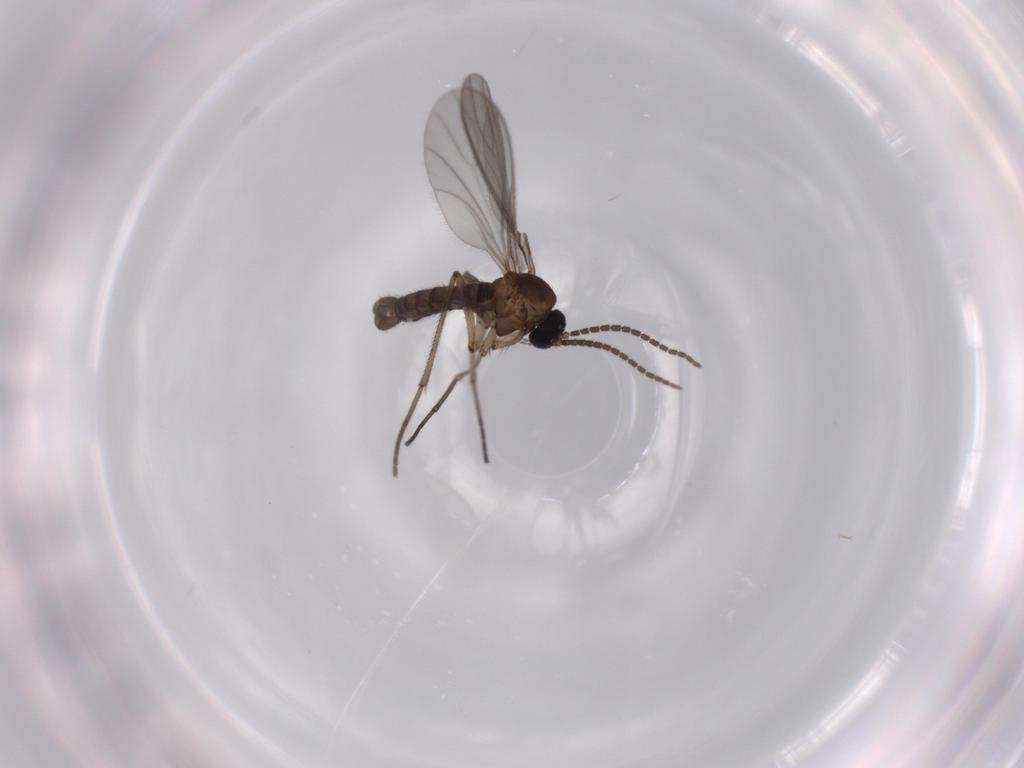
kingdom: Animalia
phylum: Arthropoda
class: Insecta
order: Diptera
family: Sciaridae
